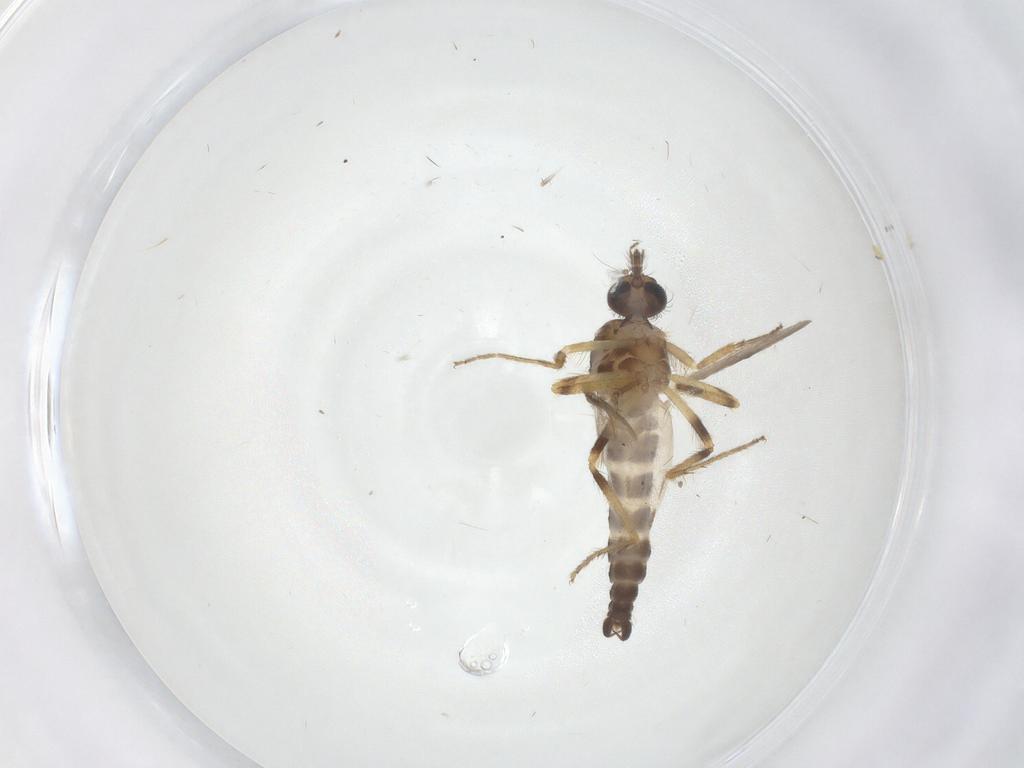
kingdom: Animalia
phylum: Arthropoda
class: Insecta
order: Diptera
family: Ceratopogonidae
